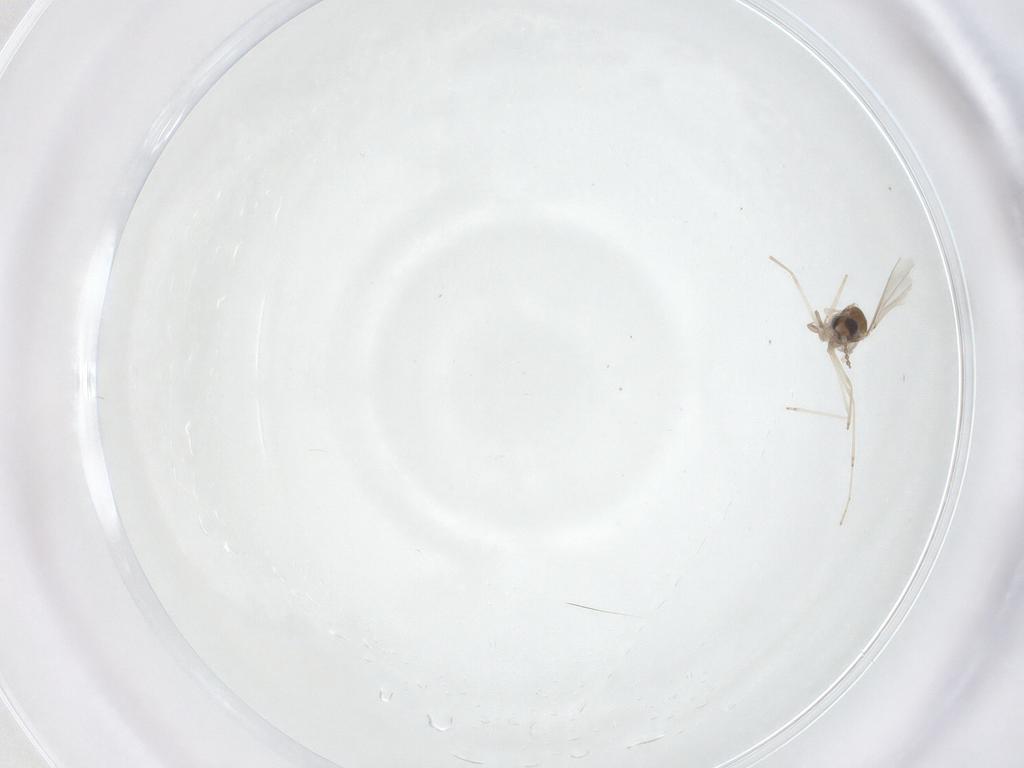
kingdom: Animalia
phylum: Arthropoda
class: Insecta
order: Diptera
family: Cecidomyiidae
